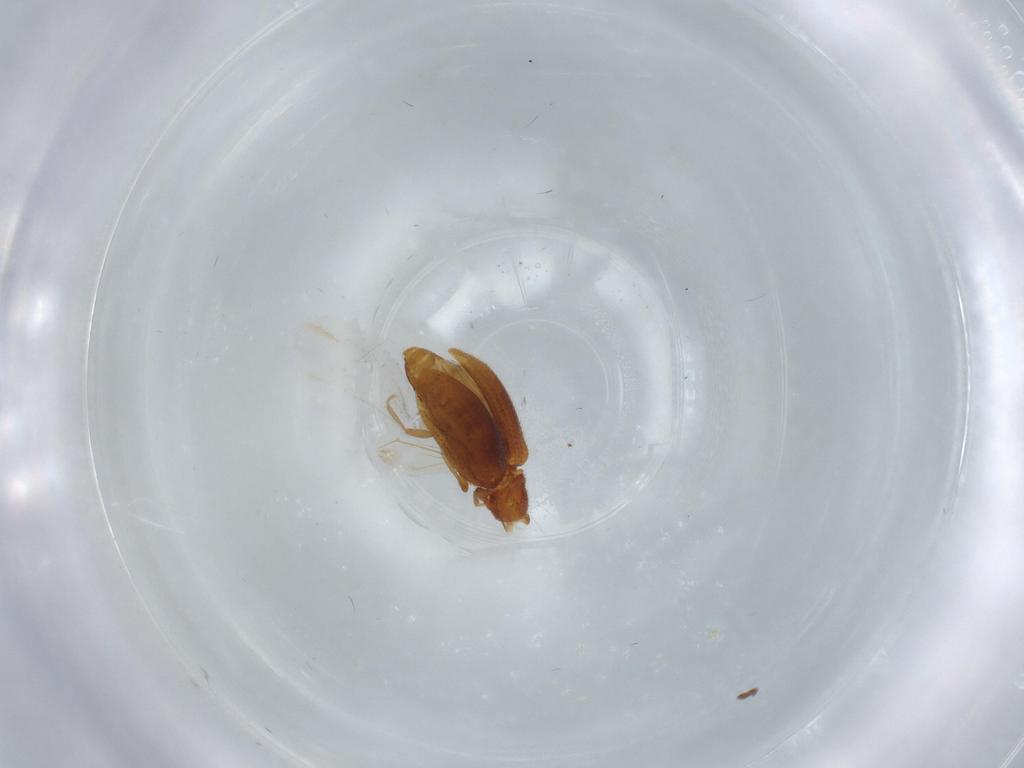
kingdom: Animalia
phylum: Arthropoda
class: Insecta
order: Coleoptera
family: Latridiidae
